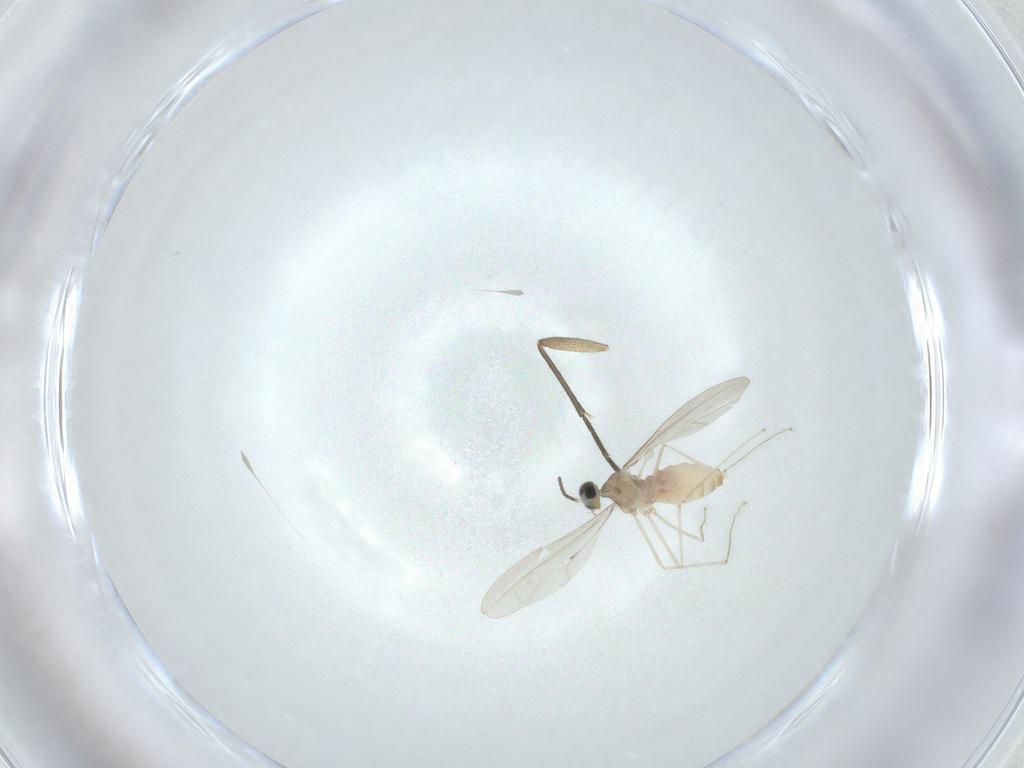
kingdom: Animalia
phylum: Arthropoda
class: Insecta
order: Diptera
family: Cecidomyiidae
